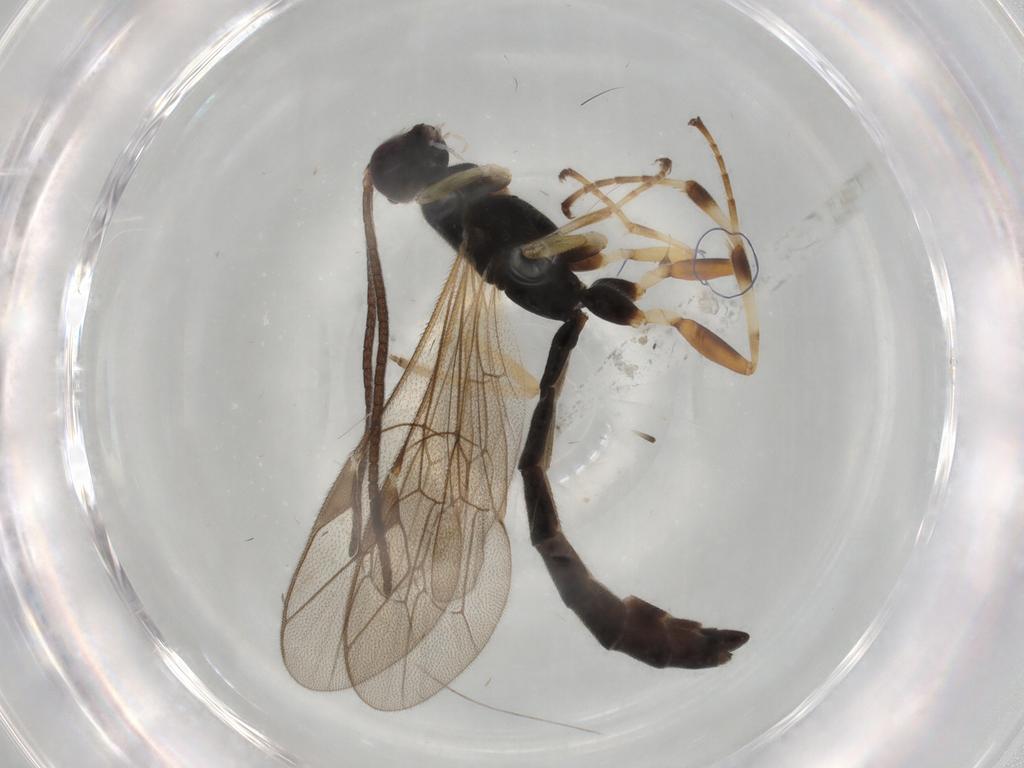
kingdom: Animalia
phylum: Arthropoda
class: Insecta
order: Hymenoptera
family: Ichneumonidae
